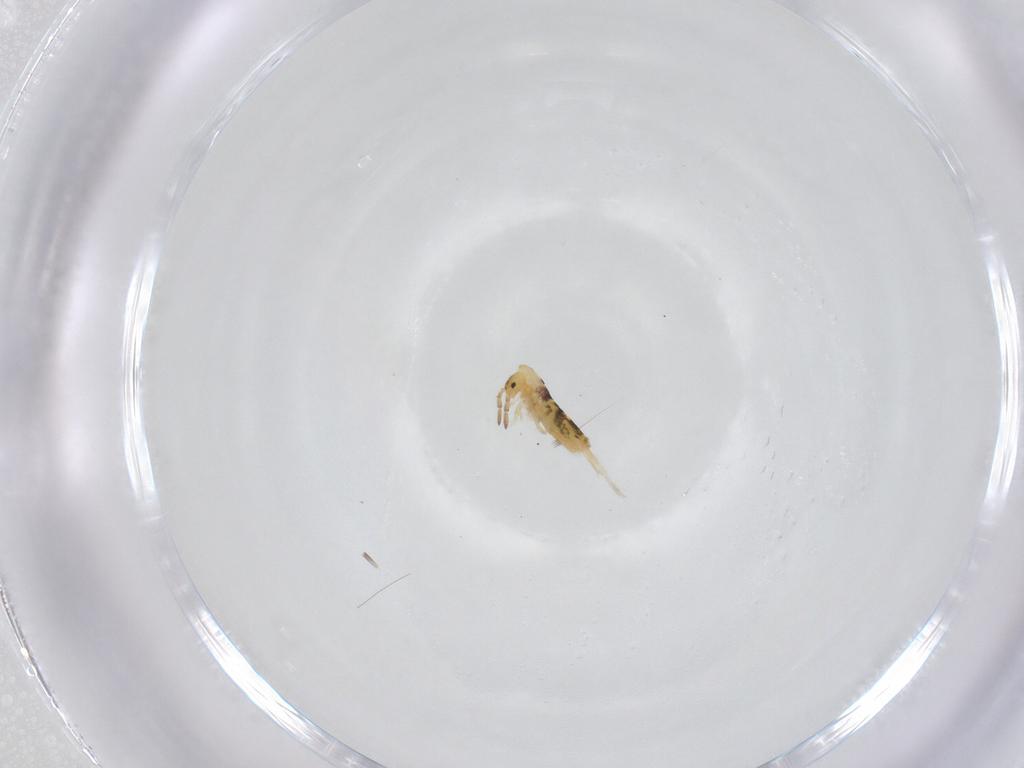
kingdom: Animalia
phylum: Arthropoda
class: Collembola
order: Entomobryomorpha
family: Entomobryidae
